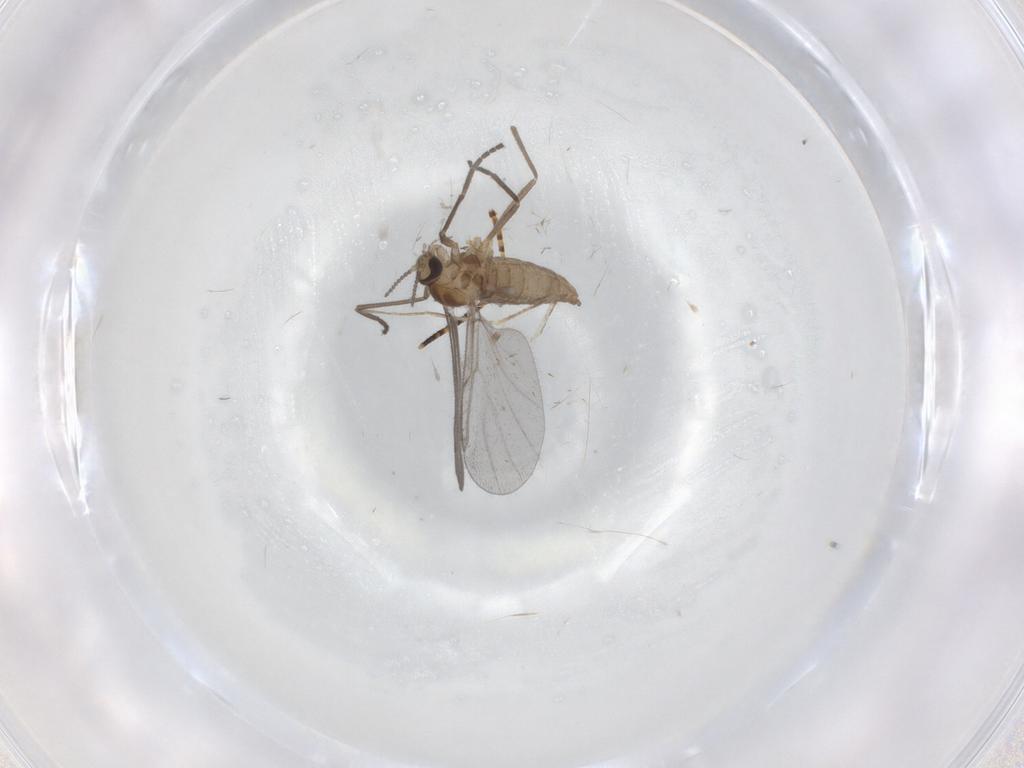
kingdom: Animalia
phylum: Arthropoda
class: Insecta
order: Diptera
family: Cecidomyiidae
